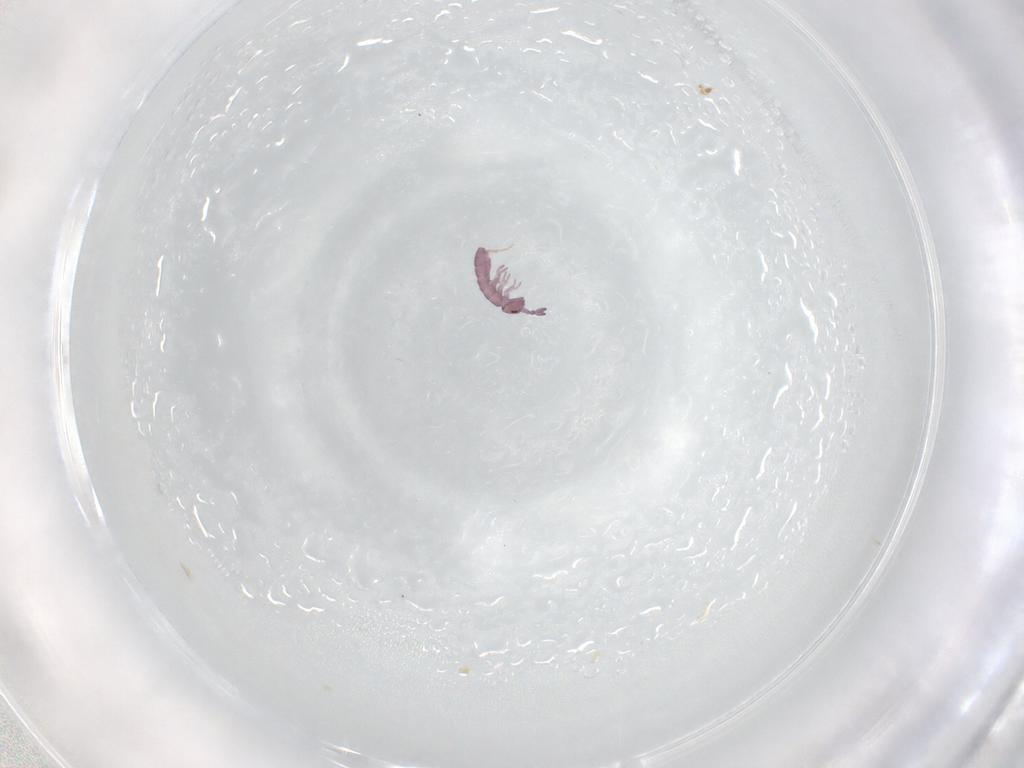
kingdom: Animalia
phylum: Arthropoda
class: Collembola
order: Entomobryomorpha
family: Isotomidae
